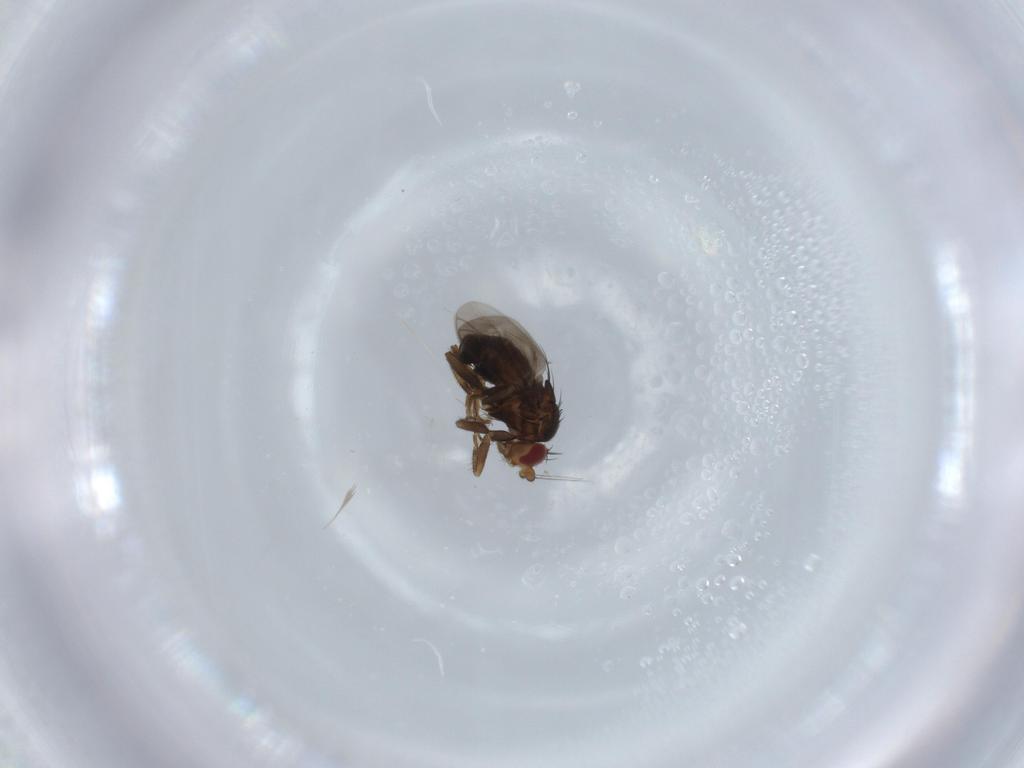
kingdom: Animalia
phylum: Arthropoda
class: Insecta
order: Diptera
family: Sphaeroceridae
